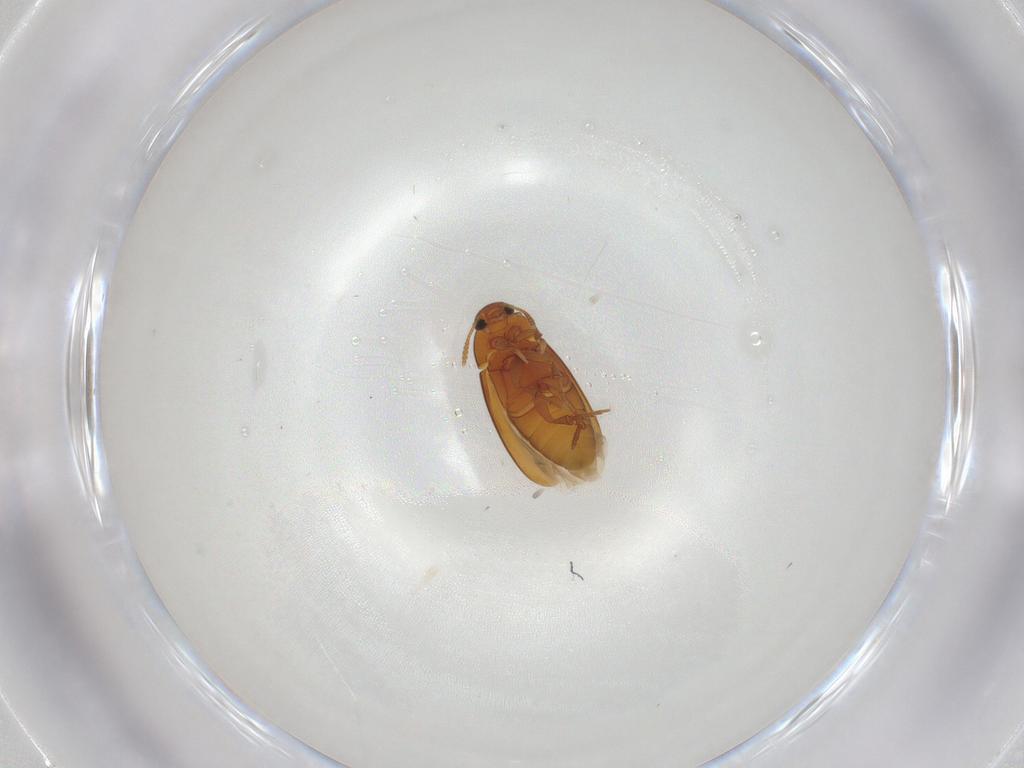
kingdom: Animalia
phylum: Arthropoda
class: Insecta
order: Coleoptera
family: Scraptiidae
